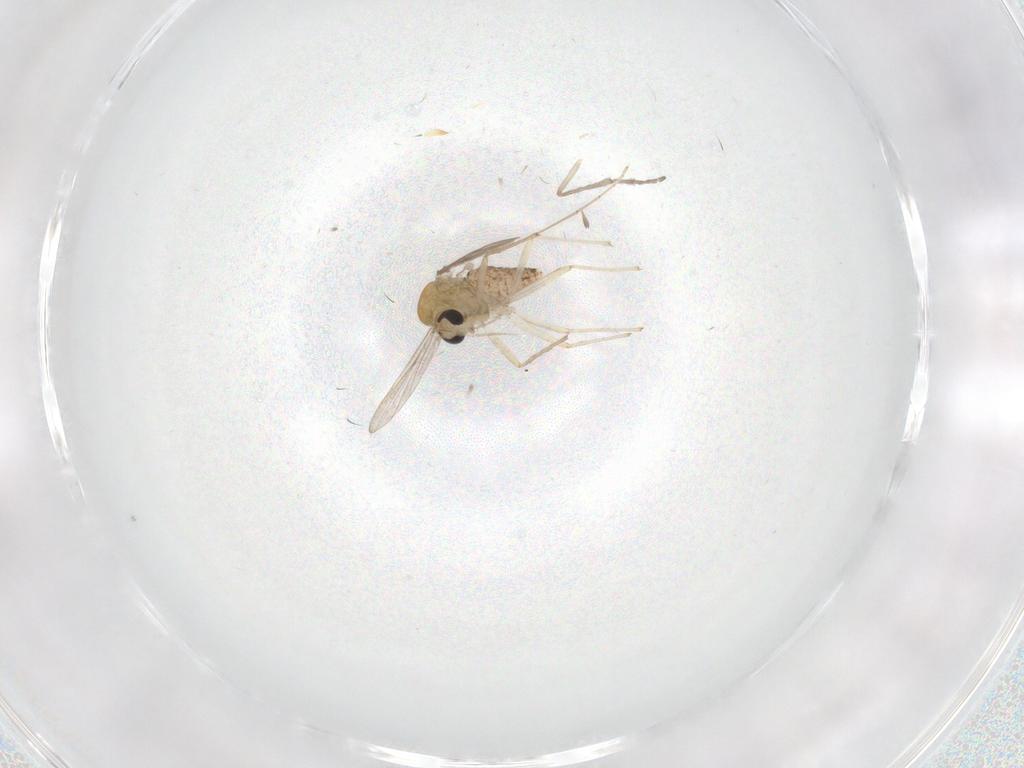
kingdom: Animalia
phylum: Arthropoda
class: Insecta
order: Diptera
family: Chironomidae
